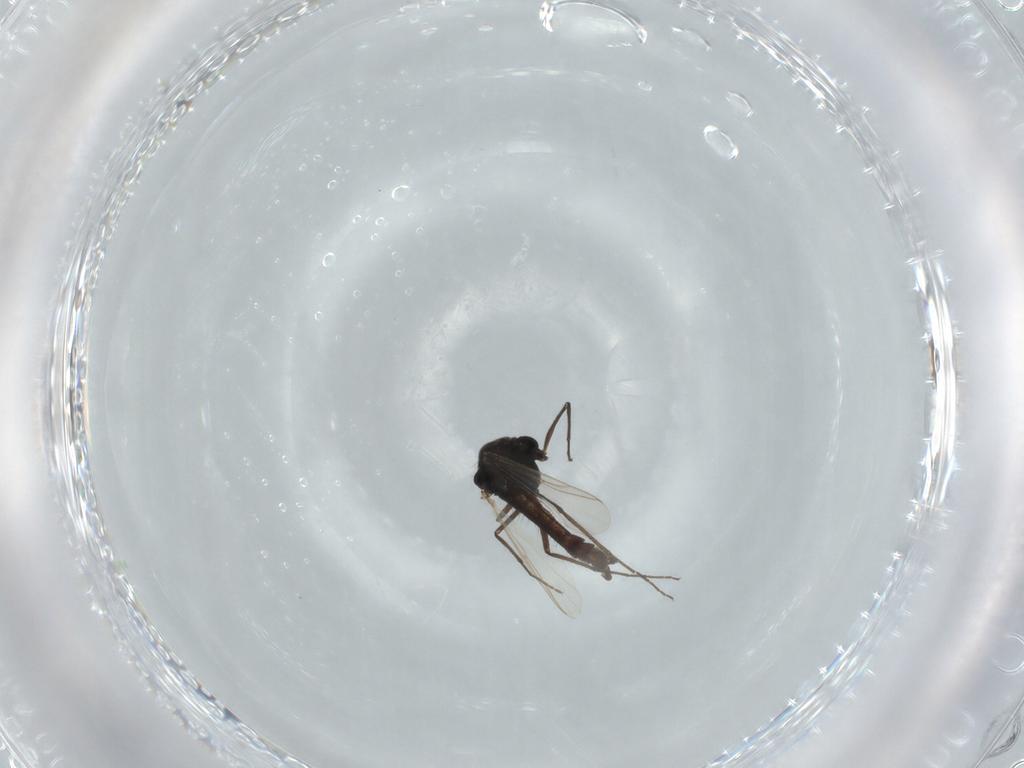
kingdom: Animalia
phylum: Arthropoda
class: Insecta
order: Diptera
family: Chironomidae
